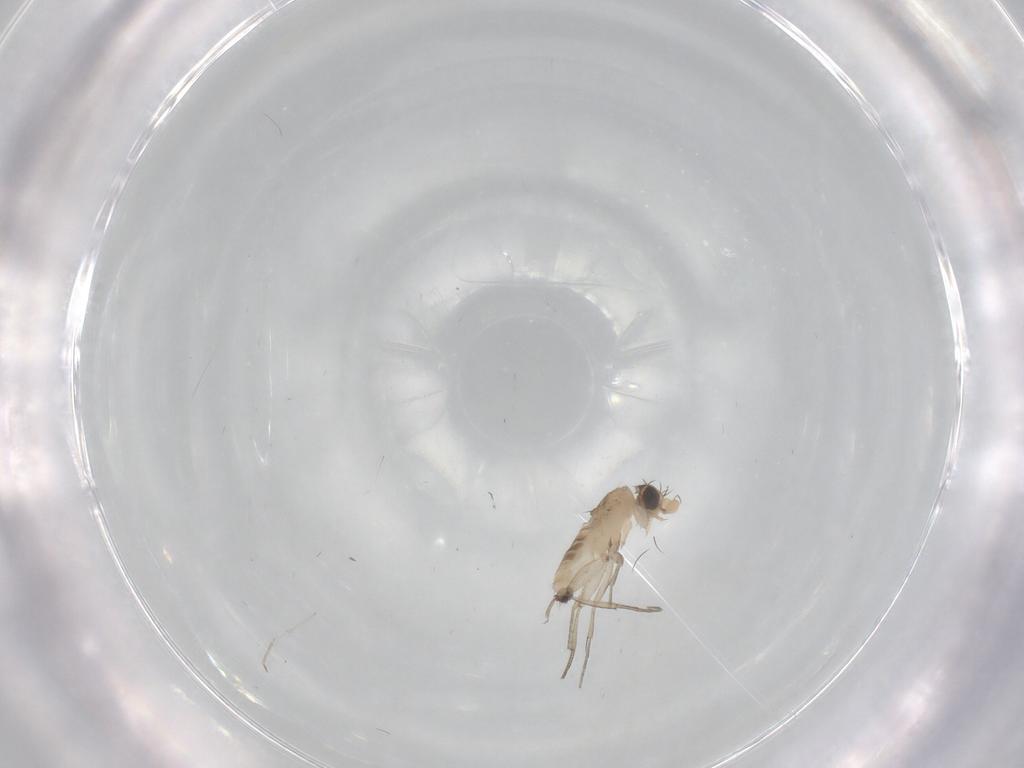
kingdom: Animalia
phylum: Arthropoda
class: Insecta
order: Diptera
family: Phoridae
